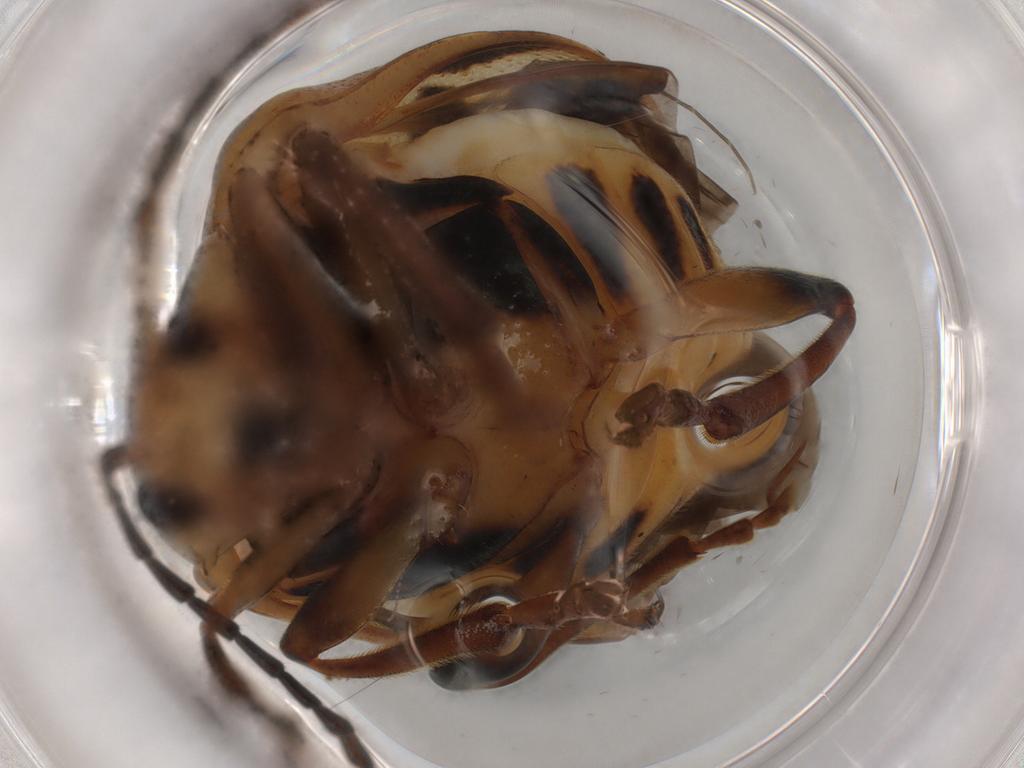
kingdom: Animalia
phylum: Arthropoda
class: Insecta
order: Coleoptera
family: Chrysomelidae
